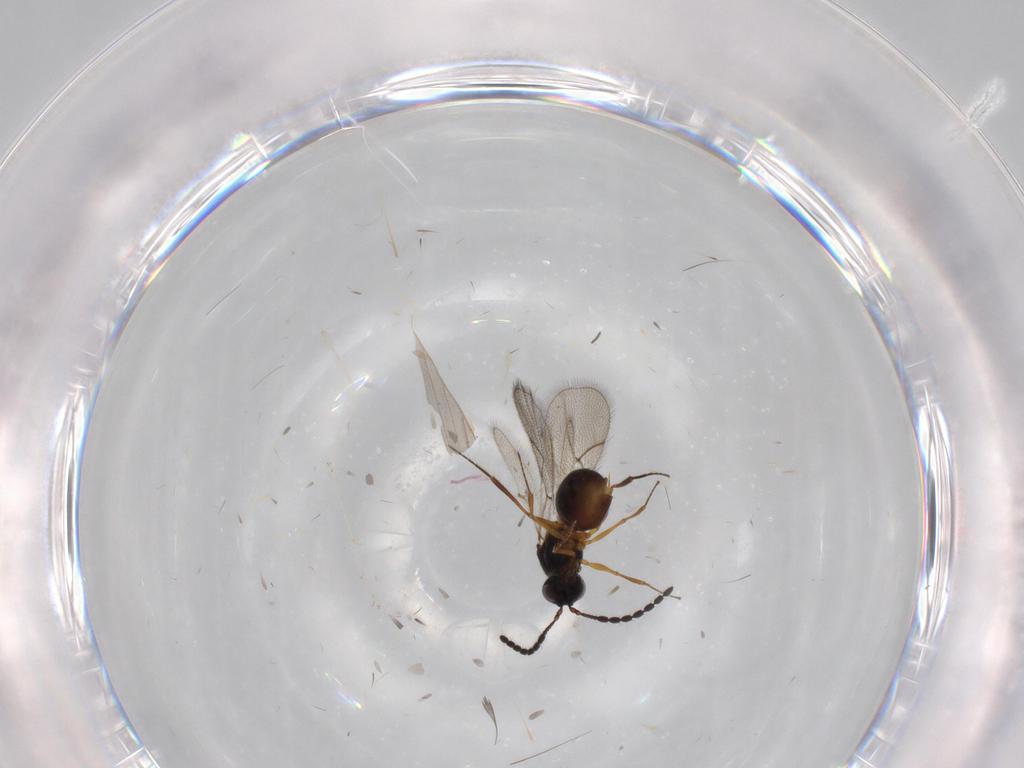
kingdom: Animalia
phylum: Arthropoda
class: Insecta
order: Hymenoptera
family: Figitidae
